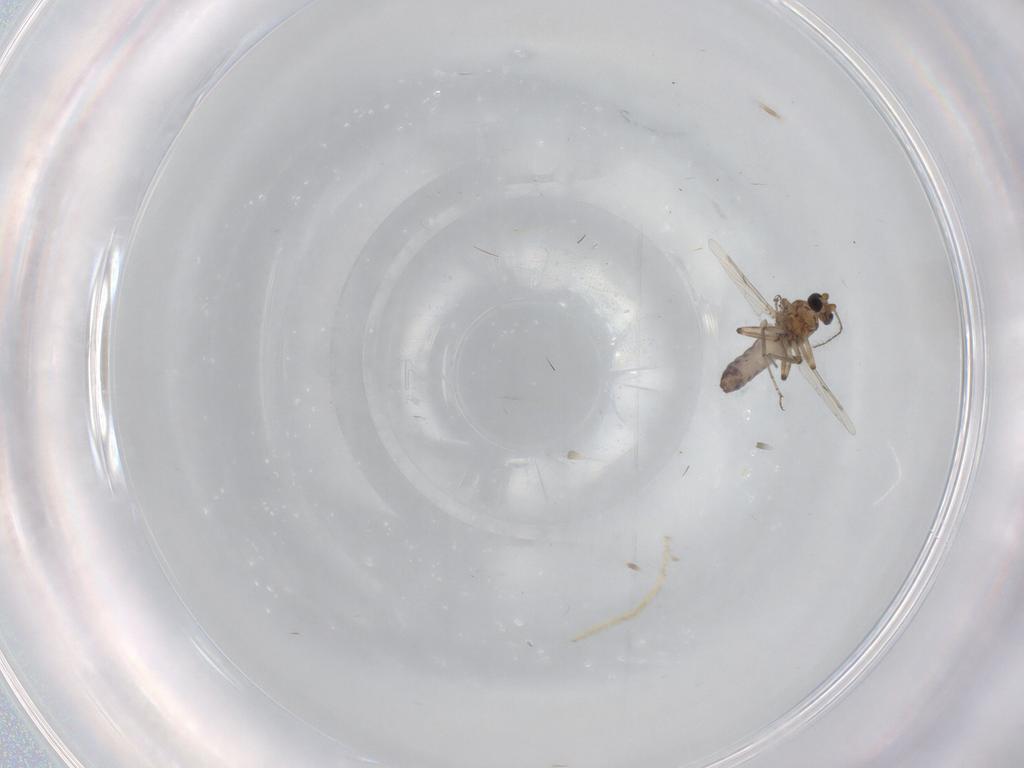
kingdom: Animalia
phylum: Arthropoda
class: Insecta
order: Diptera
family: Ceratopogonidae
